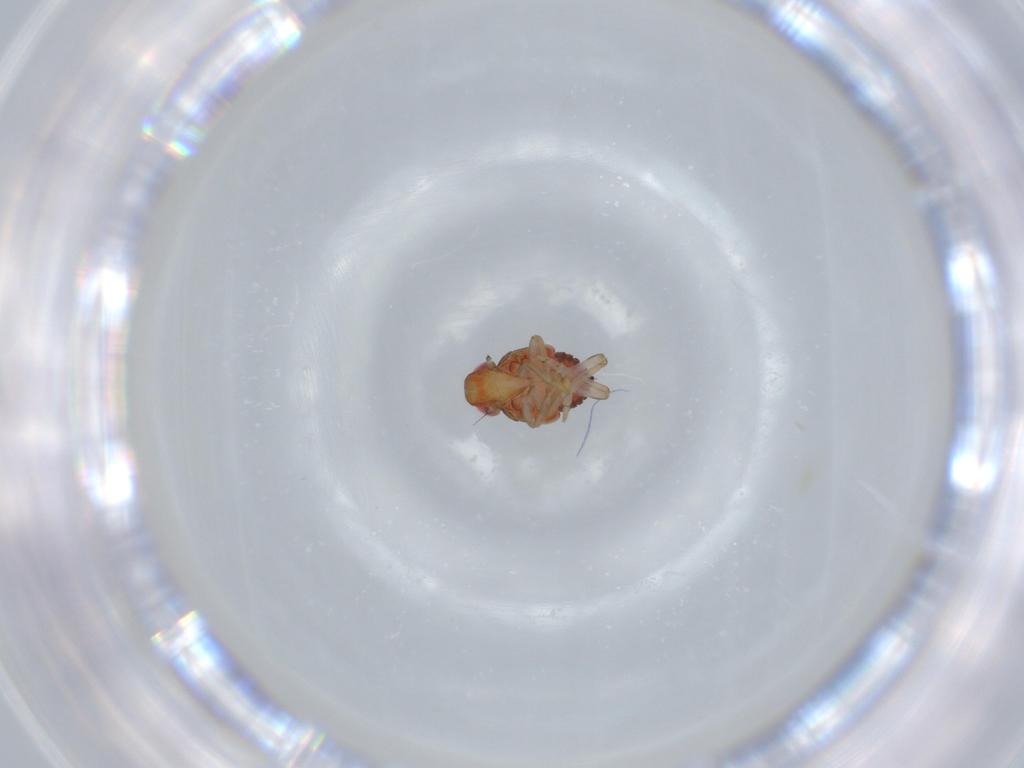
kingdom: Animalia
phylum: Arthropoda
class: Insecta
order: Hemiptera
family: Issidae
